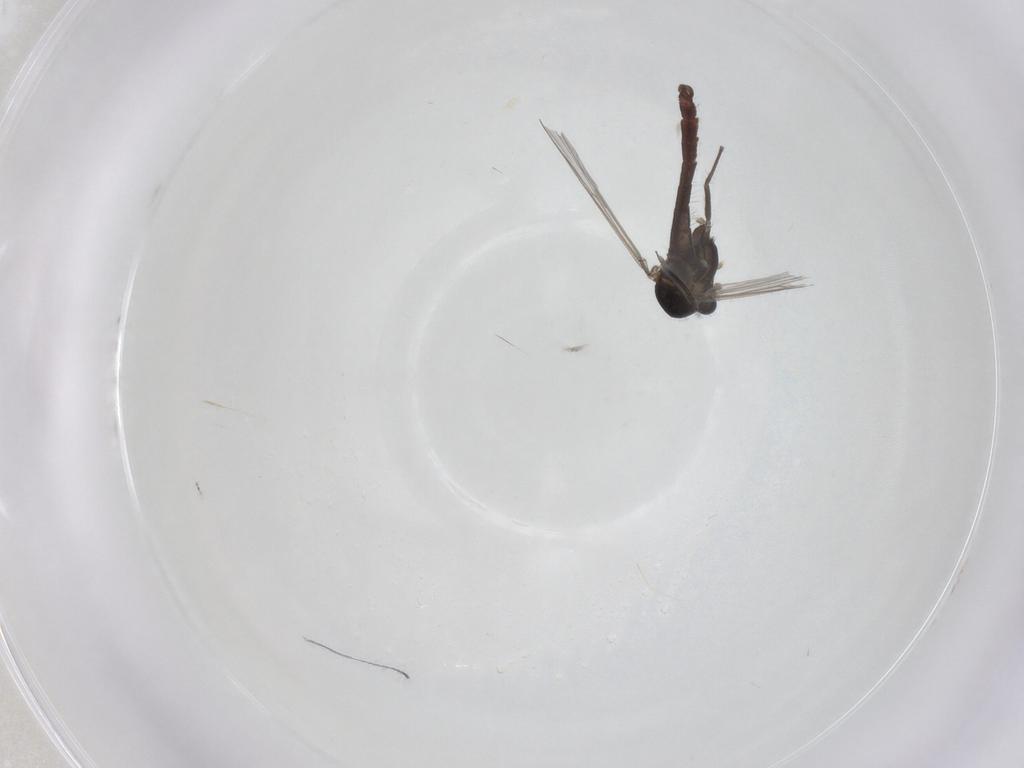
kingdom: Animalia
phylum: Arthropoda
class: Insecta
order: Diptera
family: Chironomidae
